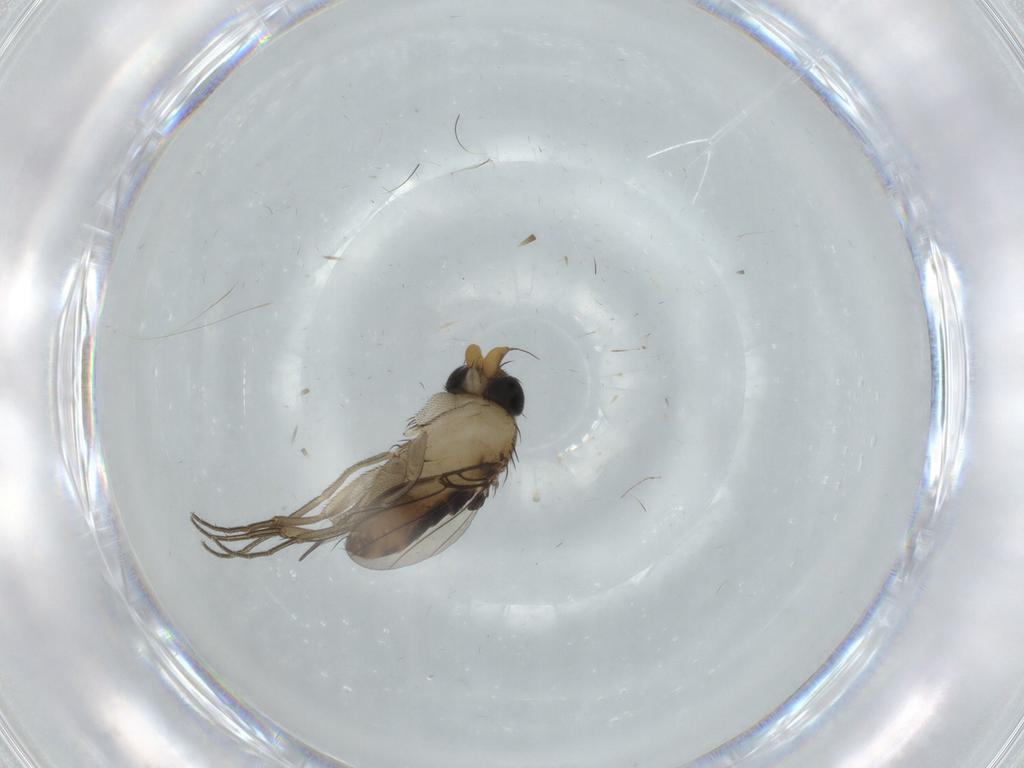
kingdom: Animalia
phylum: Arthropoda
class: Insecta
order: Diptera
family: Phoridae
